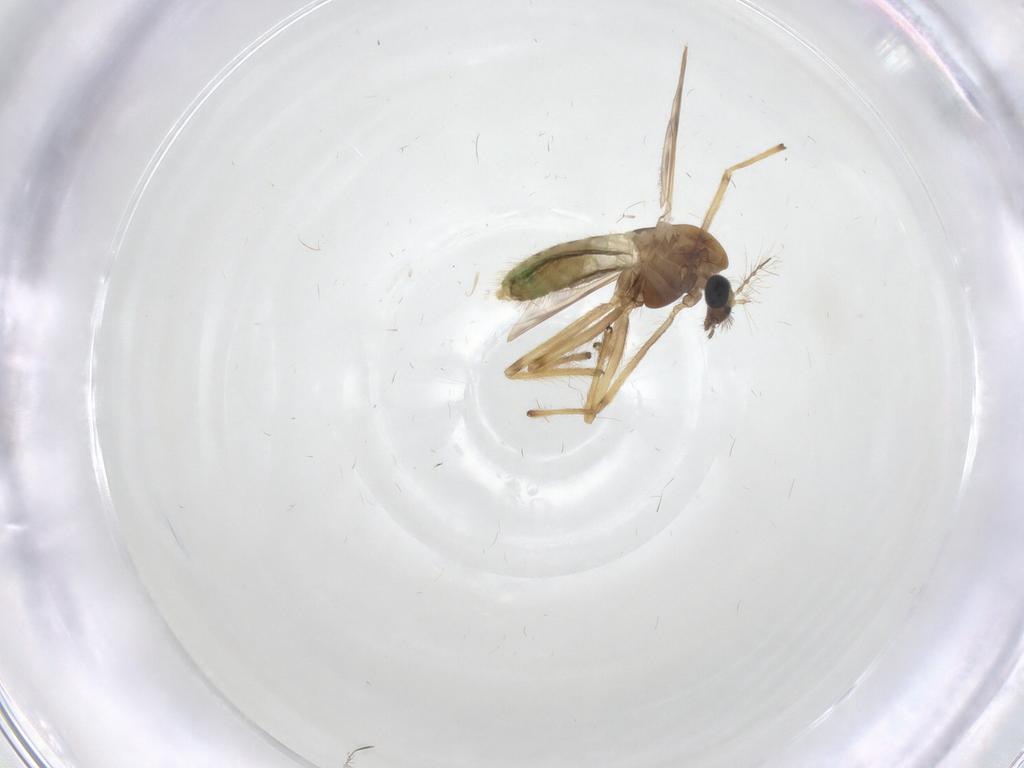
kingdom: Animalia
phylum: Arthropoda
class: Insecta
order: Diptera
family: Chironomidae
